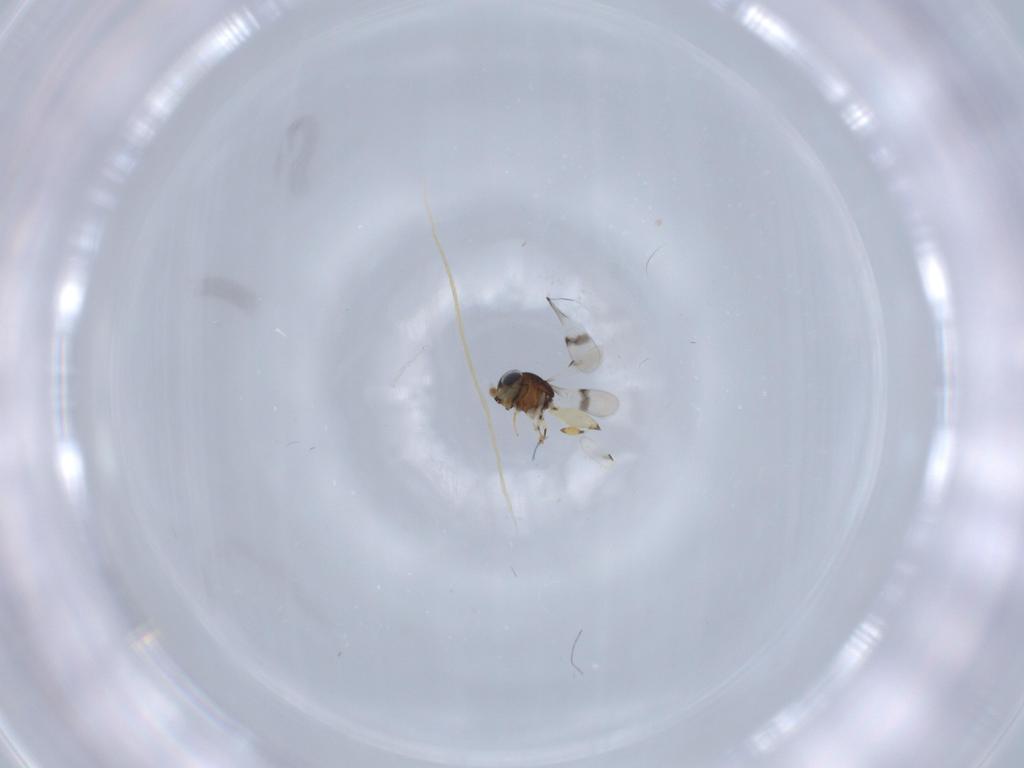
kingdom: Animalia
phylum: Arthropoda
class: Insecta
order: Hymenoptera
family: Scelionidae
